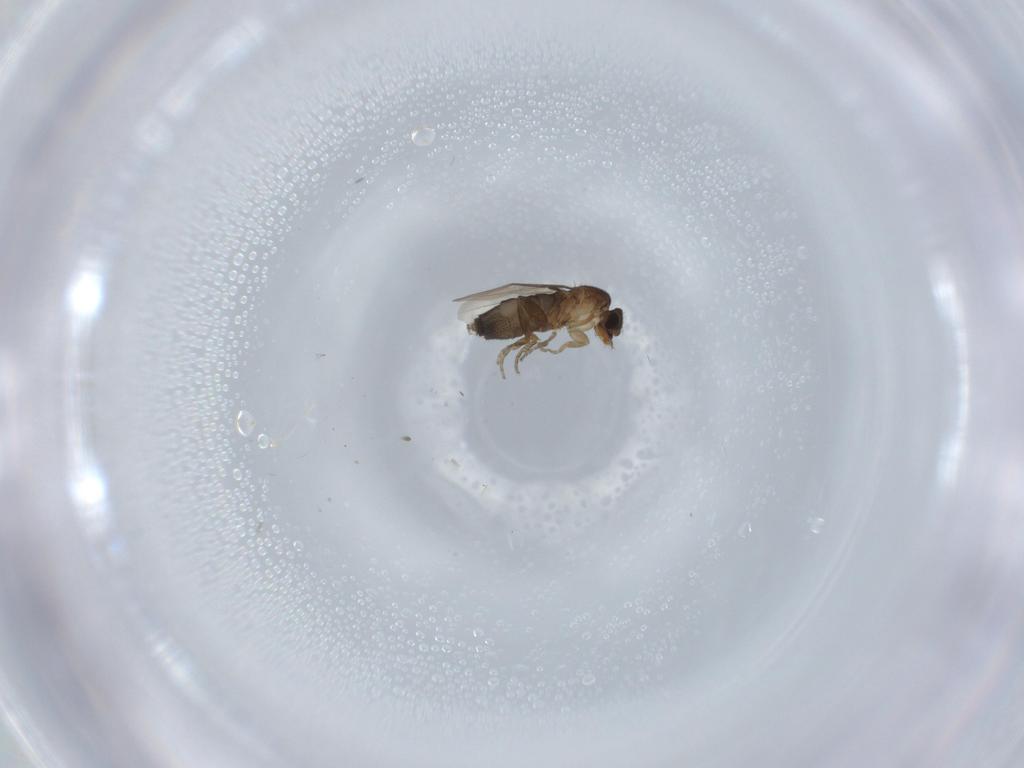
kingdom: Animalia
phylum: Arthropoda
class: Insecta
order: Diptera
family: Phoridae
